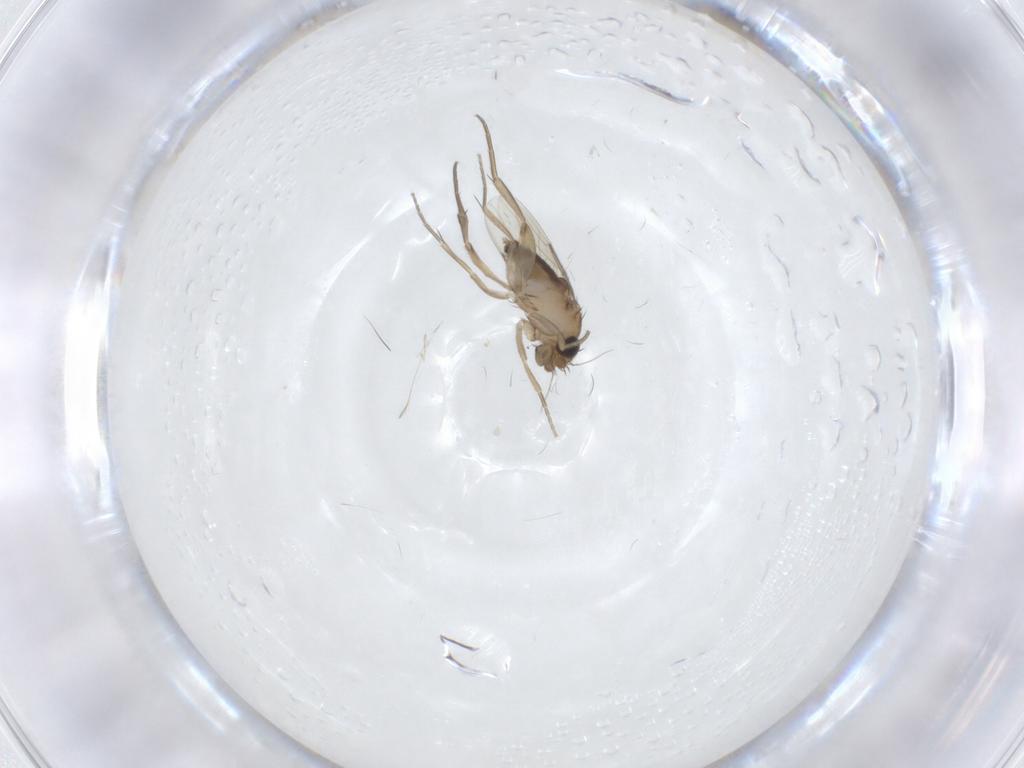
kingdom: Animalia
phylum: Arthropoda
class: Insecta
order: Diptera
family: Phoridae
